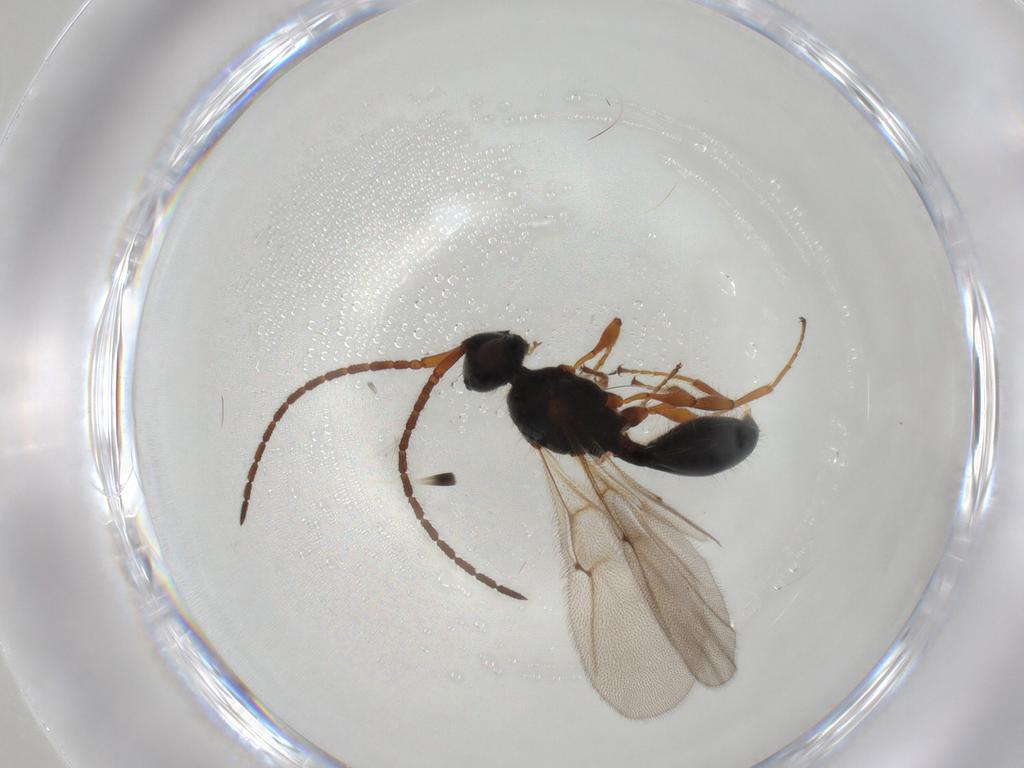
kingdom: Animalia
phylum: Arthropoda
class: Insecta
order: Hymenoptera
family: Diapriidae
